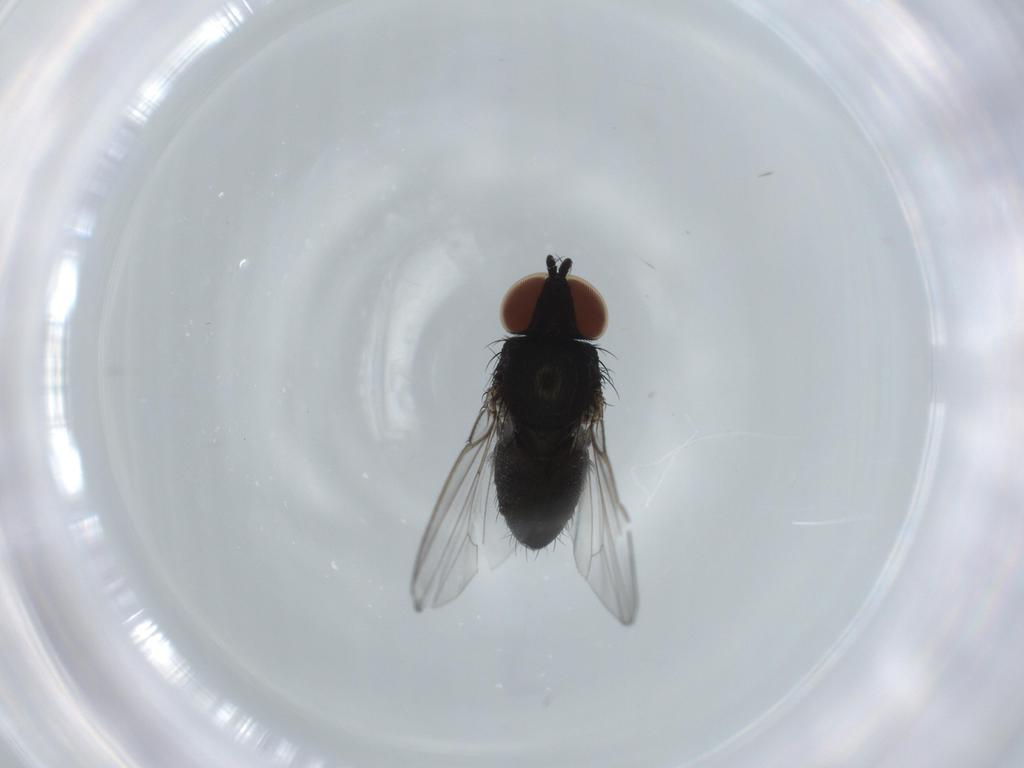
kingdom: Animalia
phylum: Arthropoda
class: Insecta
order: Diptera
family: Milichiidae
